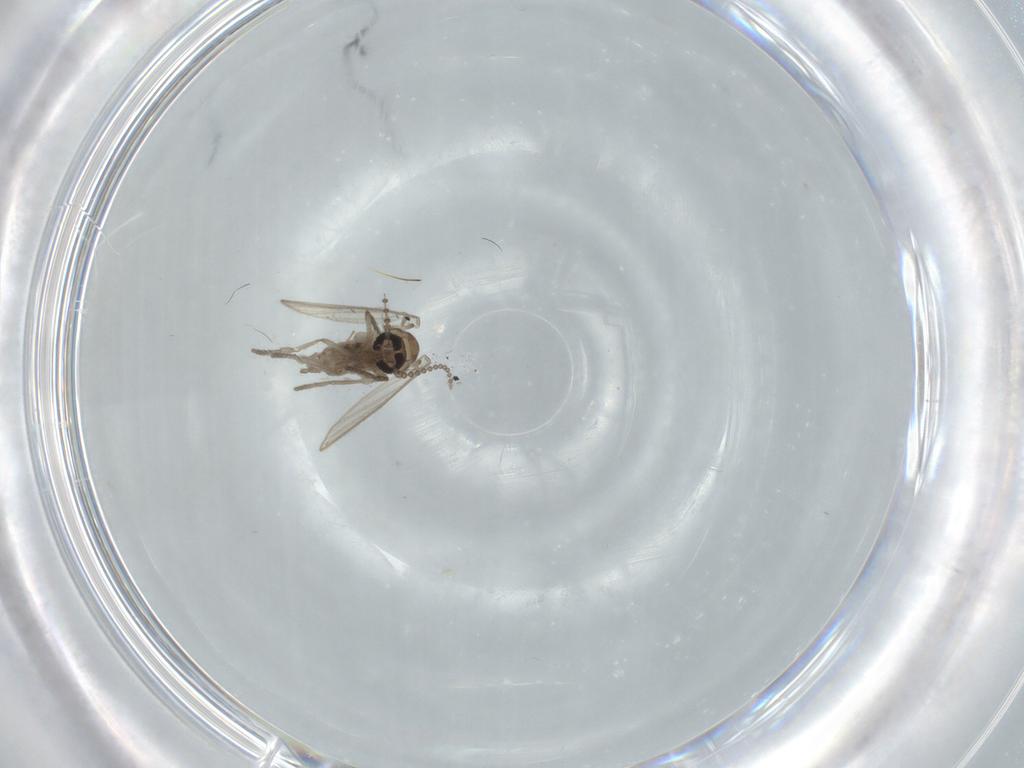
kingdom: Animalia
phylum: Arthropoda
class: Insecta
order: Diptera
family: Psychodidae
